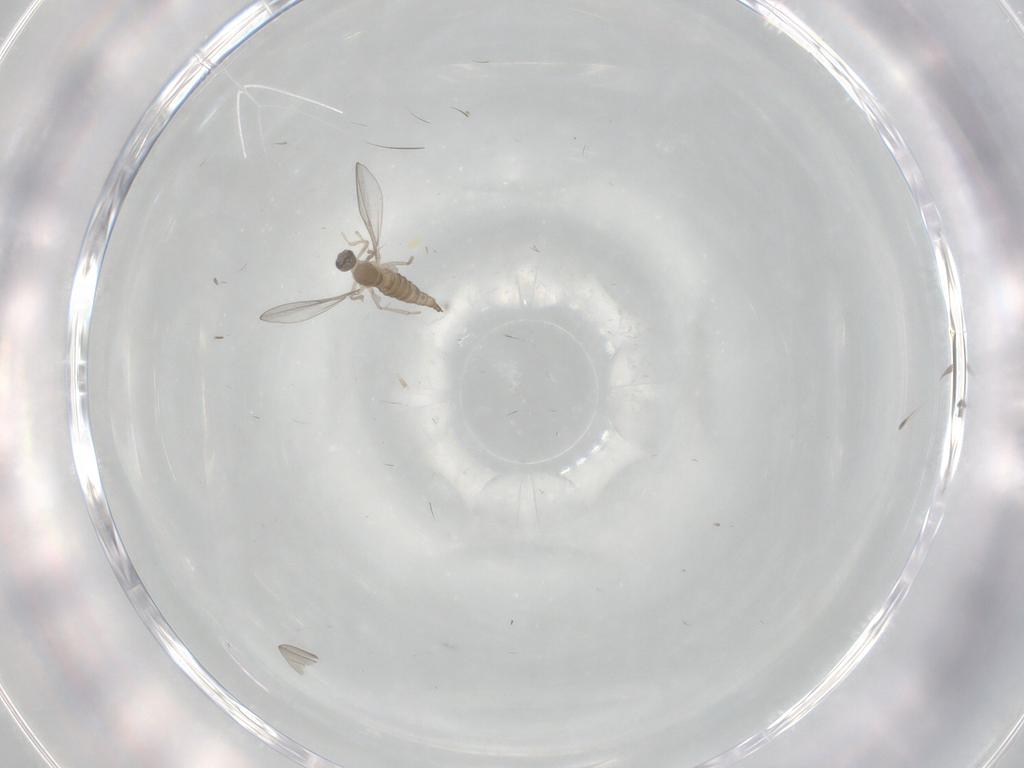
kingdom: Animalia
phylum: Arthropoda
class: Insecta
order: Diptera
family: Cecidomyiidae
